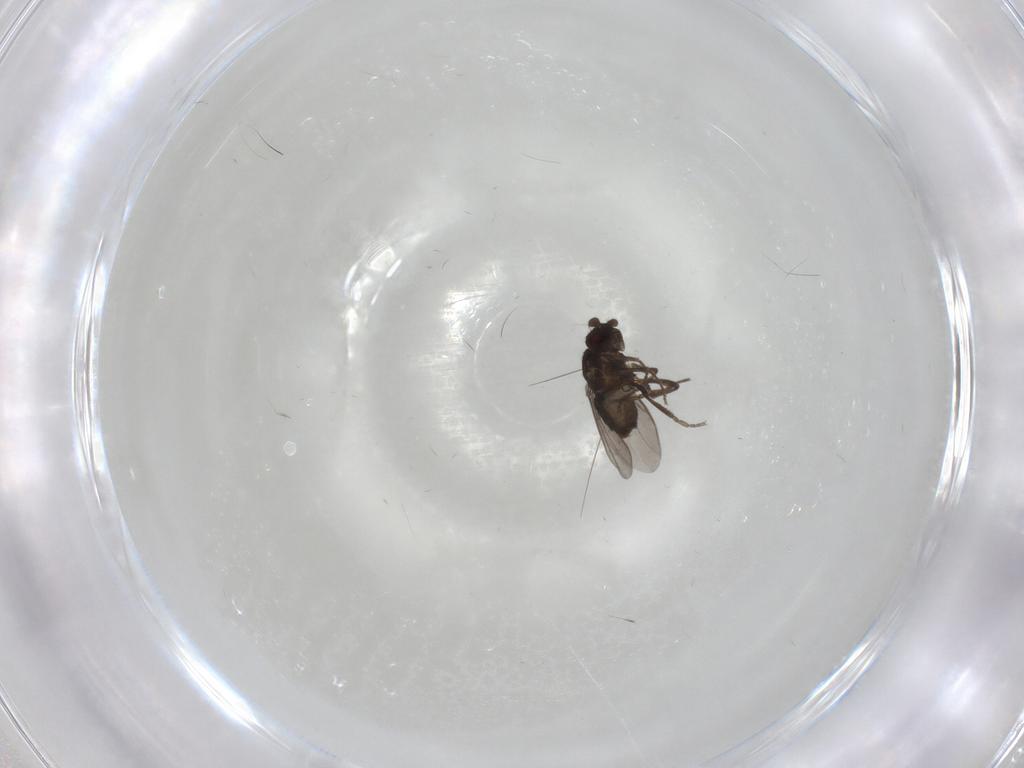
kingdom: Animalia
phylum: Arthropoda
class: Insecta
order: Diptera
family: Sphaeroceridae
